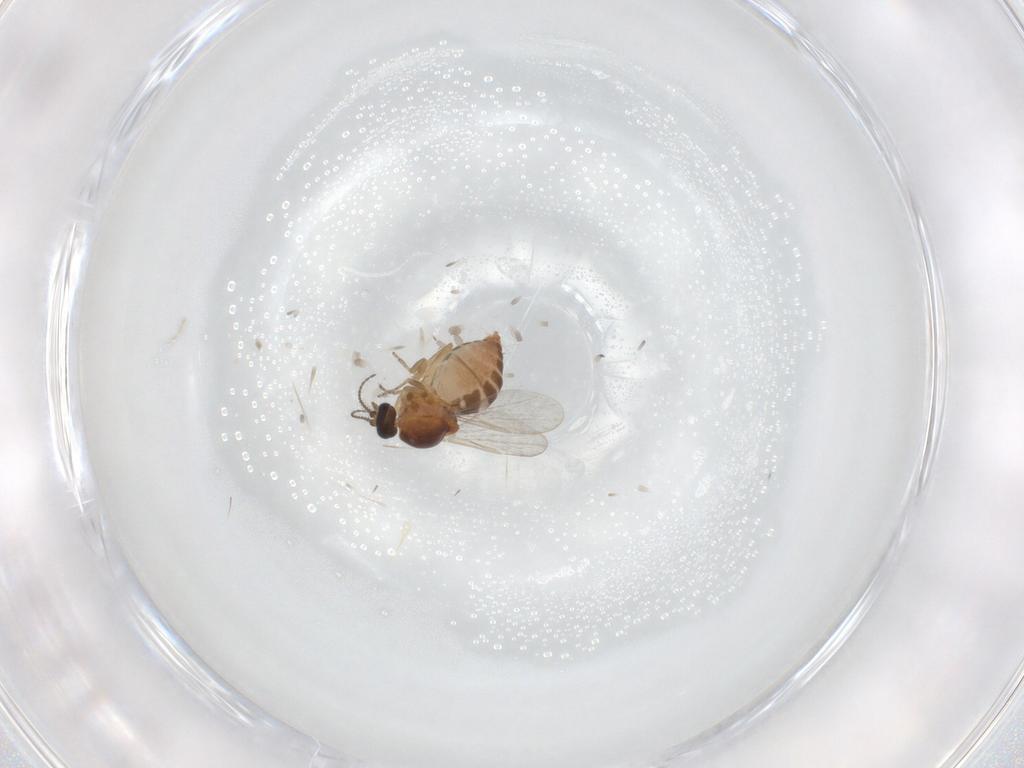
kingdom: Animalia
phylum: Arthropoda
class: Insecta
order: Diptera
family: Ceratopogonidae
